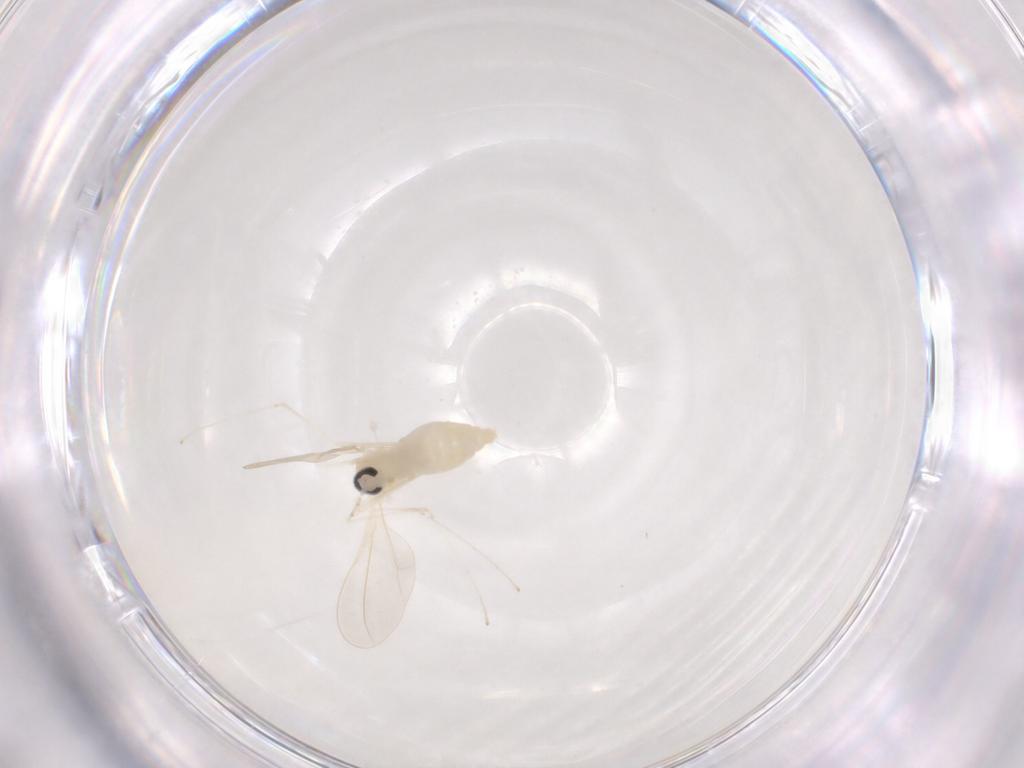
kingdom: Animalia
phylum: Arthropoda
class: Insecta
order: Diptera
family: Cecidomyiidae
